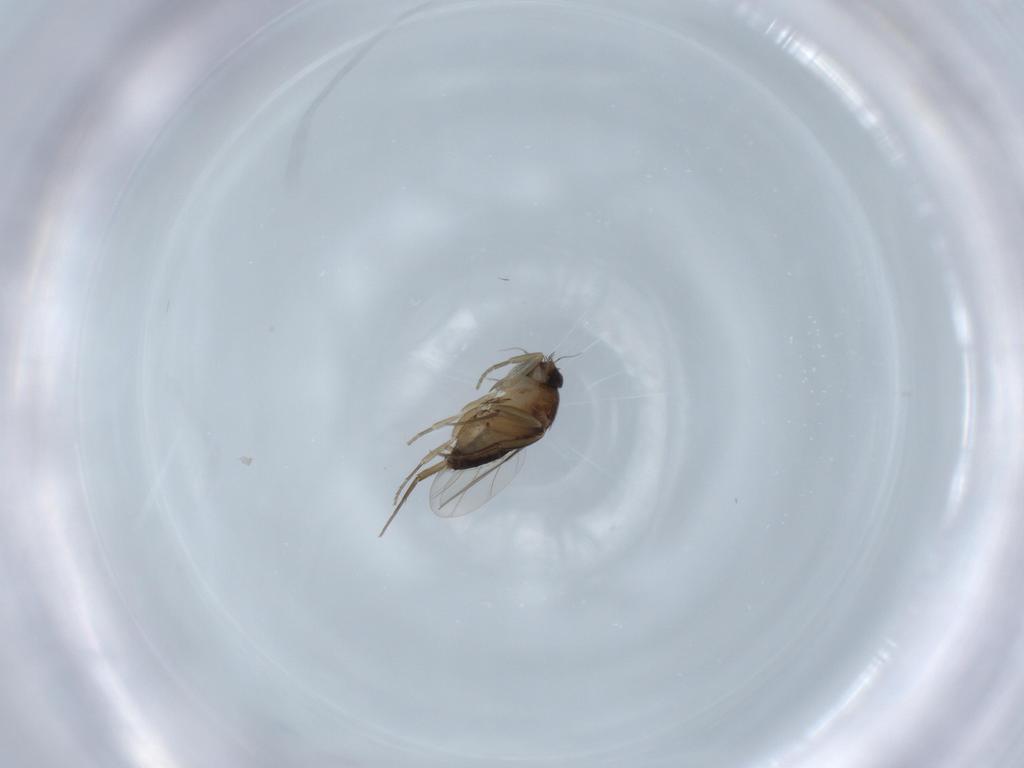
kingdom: Animalia
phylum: Arthropoda
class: Insecta
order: Diptera
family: Phoridae
